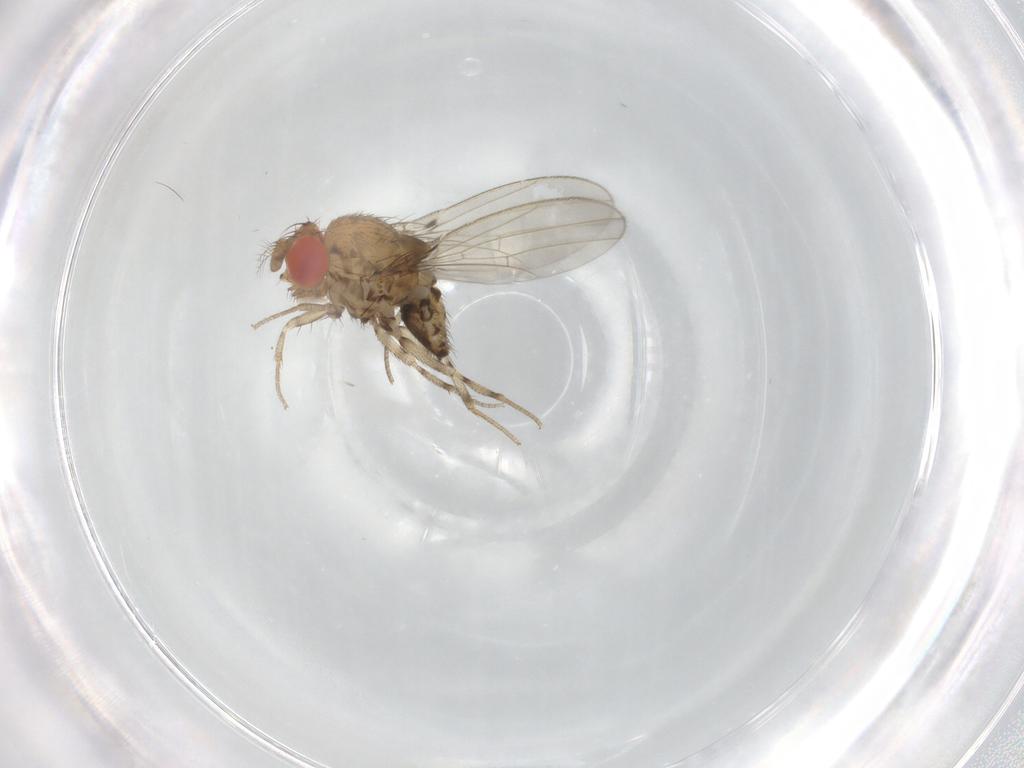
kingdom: Animalia
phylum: Arthropoda
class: Insecta
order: Diptera
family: Drosophilidae
